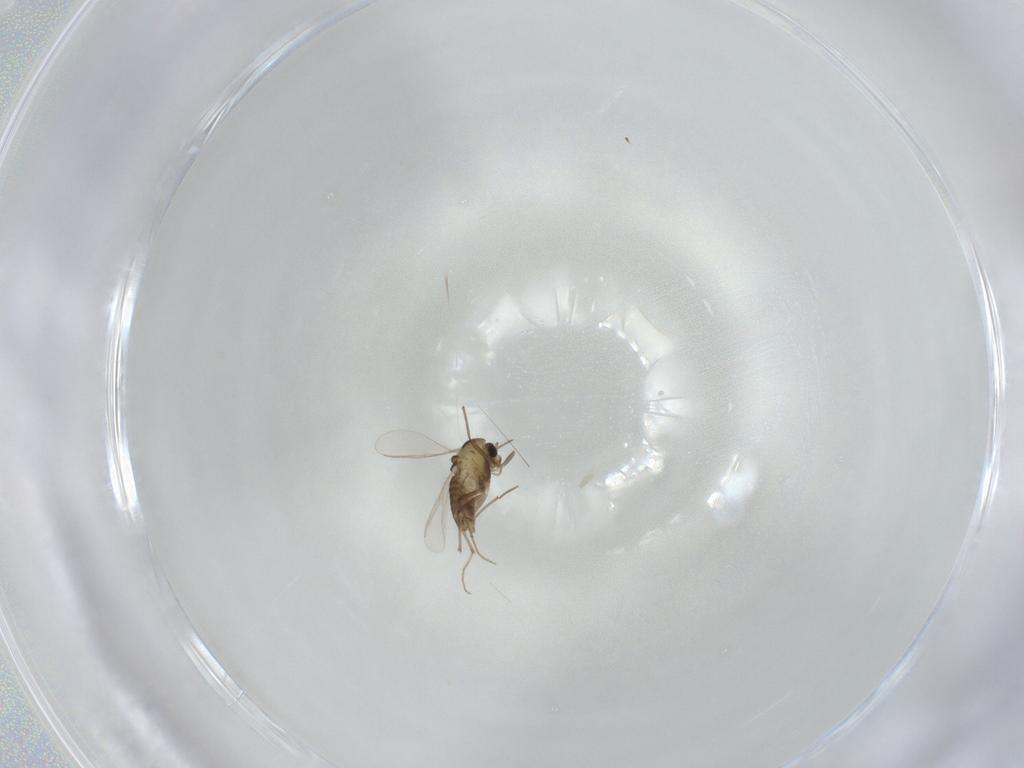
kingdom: Animalia
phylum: Arthropoda
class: Insecta
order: Diptera
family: Chironomidae
